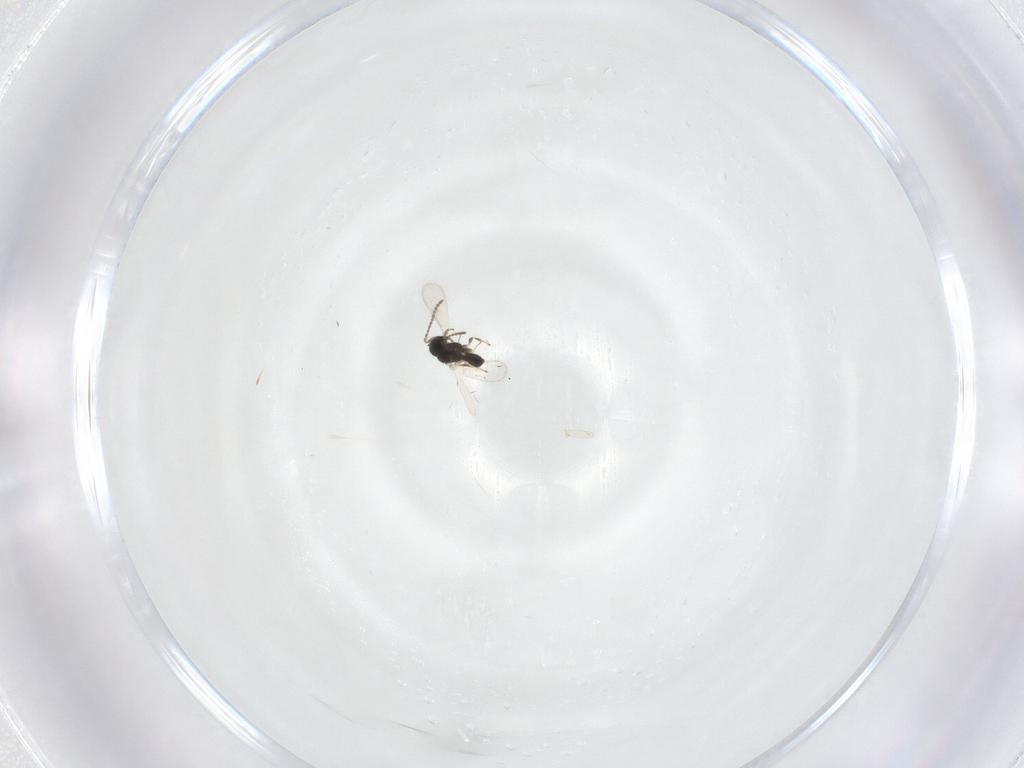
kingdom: Animalia
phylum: Arthropoda
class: Insecta
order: Hymenoptera
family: Scelionidae
